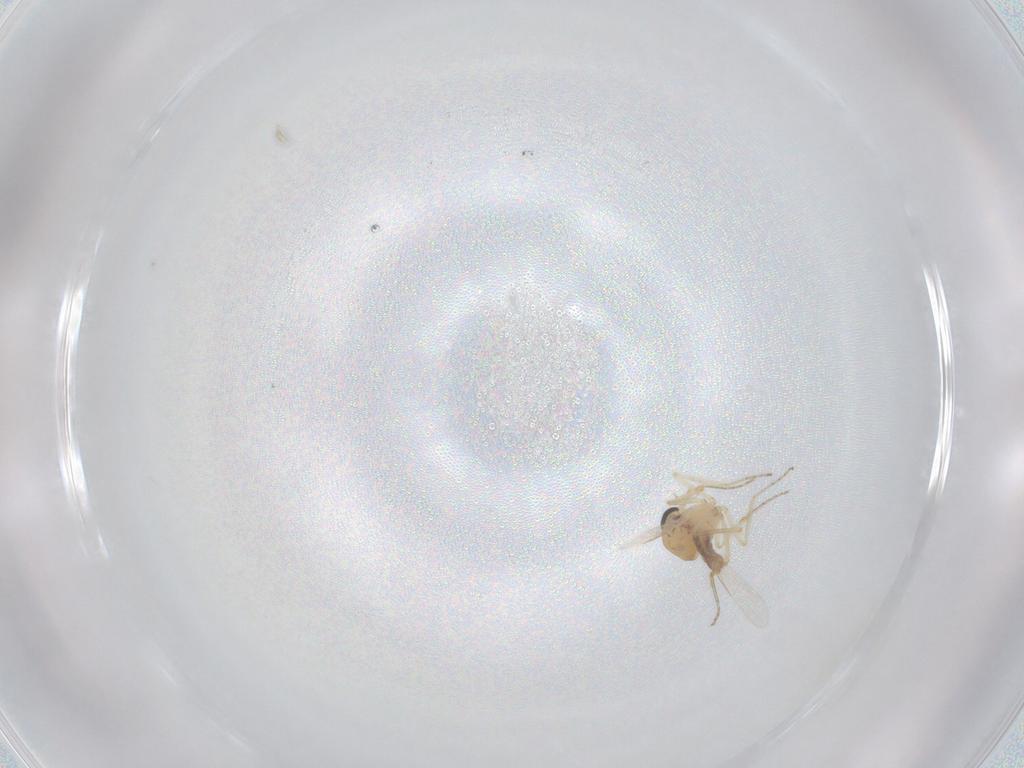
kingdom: Animalia
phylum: Arthropoda
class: Insecta
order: Diptera
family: Ceratopogonidae
